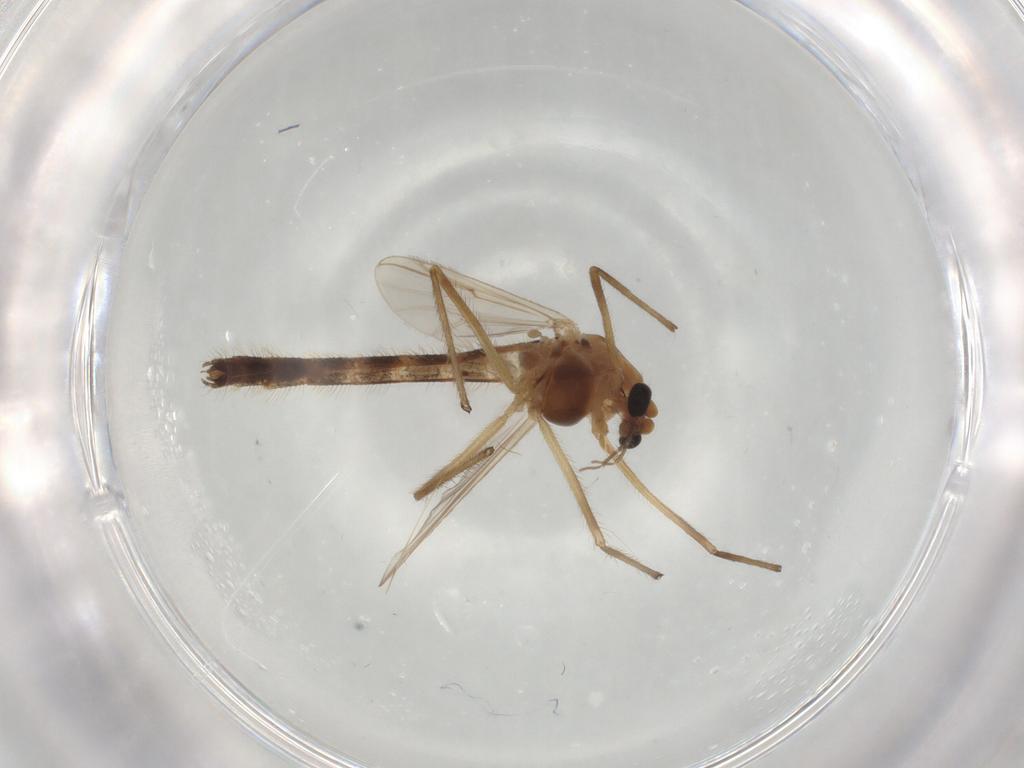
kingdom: Animalia
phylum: Arthropoda
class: Insecta
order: Diptera
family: Chironomidae
